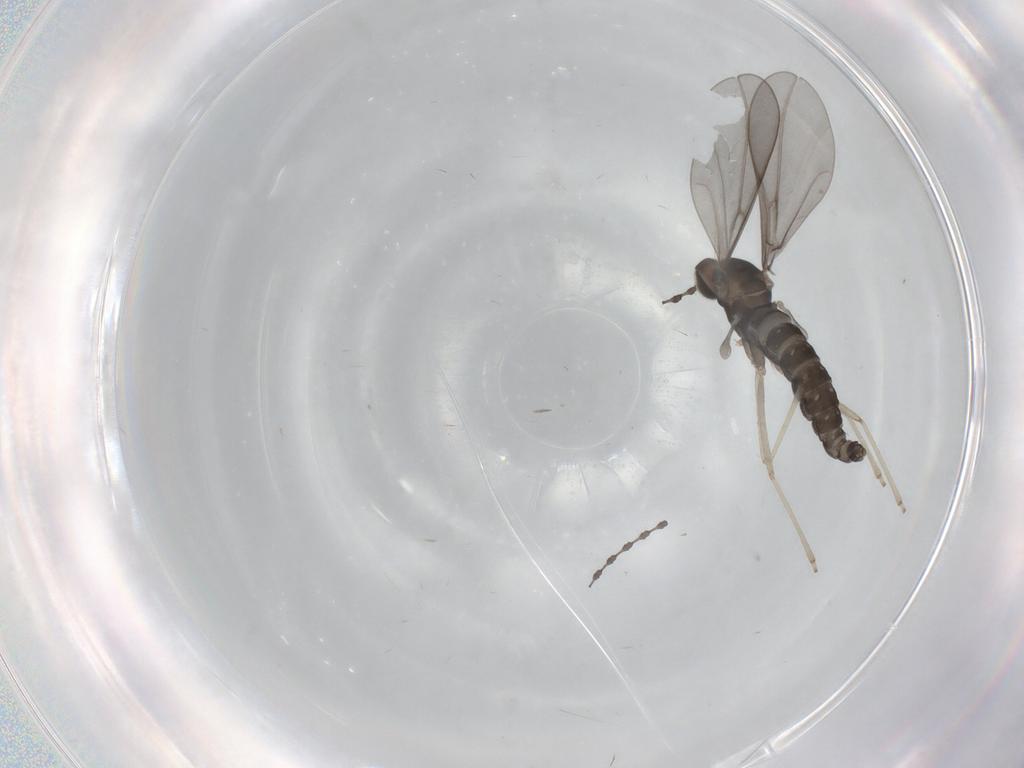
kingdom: Animalia
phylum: Arthropoda
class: Insecta
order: Diptera
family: Cecidomyiidae
